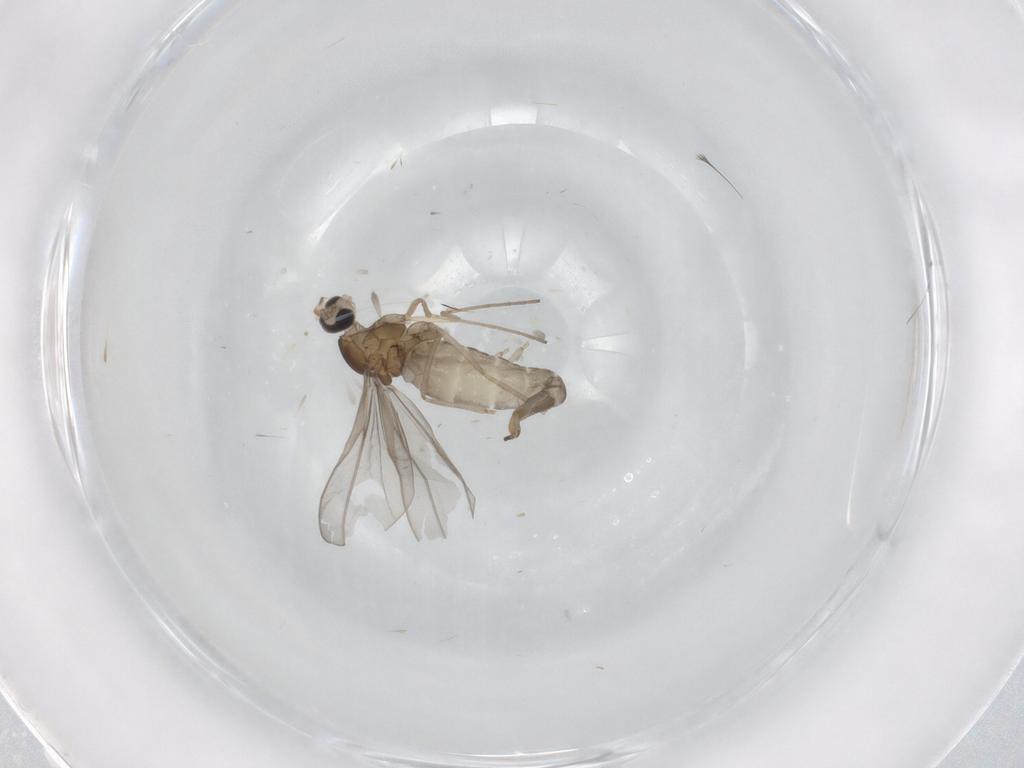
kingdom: Animalia
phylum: Arthropoda
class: Insecta
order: Diptera
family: Cecidomyiidae
